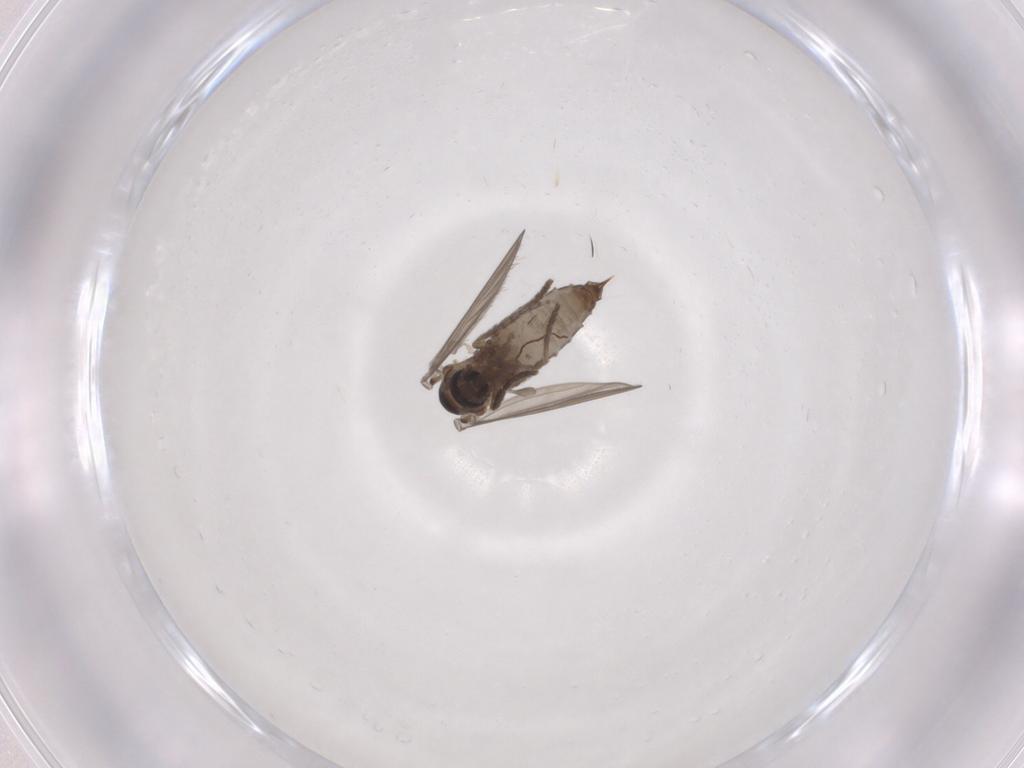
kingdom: Animalia
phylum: Arthropoda
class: Insecta
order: Diptera
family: Psychodidae
